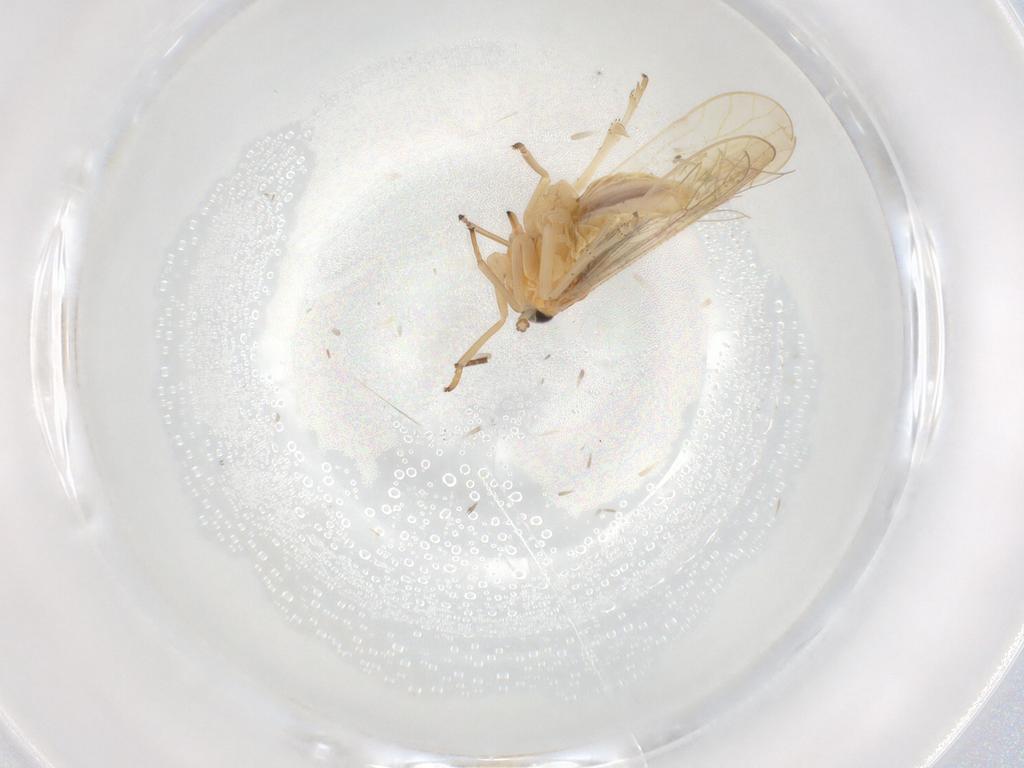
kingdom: Animalia
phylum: Arthropoda
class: Insecta
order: Hemiptera
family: Delphacidae
